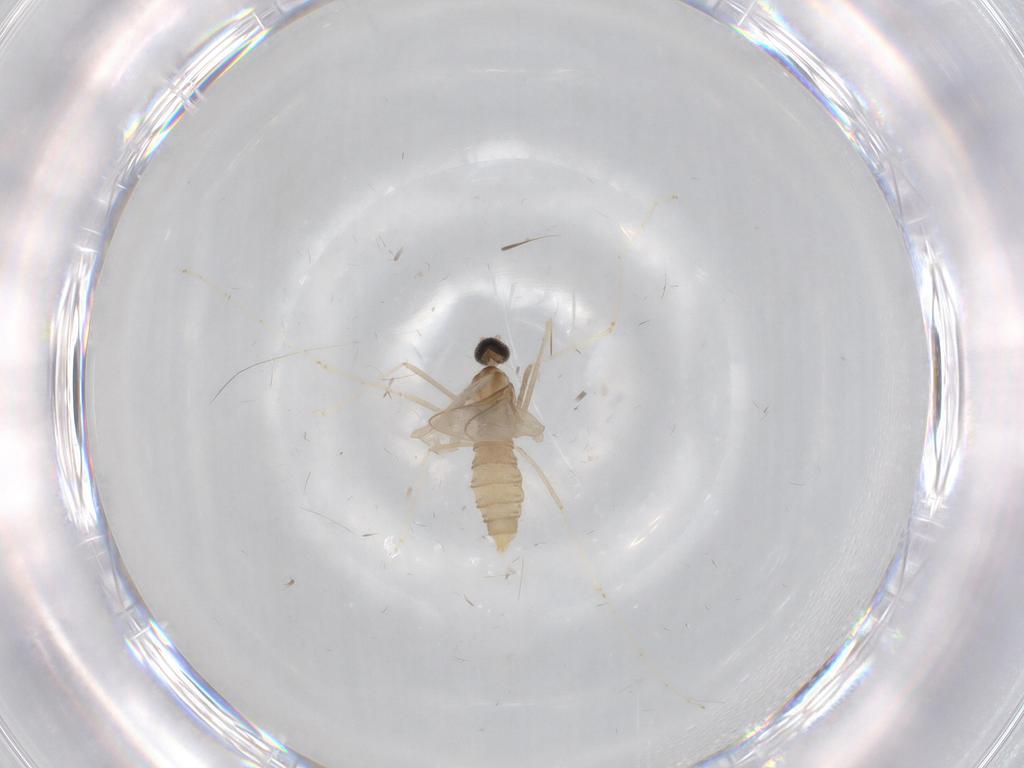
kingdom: Animalia
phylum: Arthropoda
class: Insecta
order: Diptera
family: Cecidomyiidae
